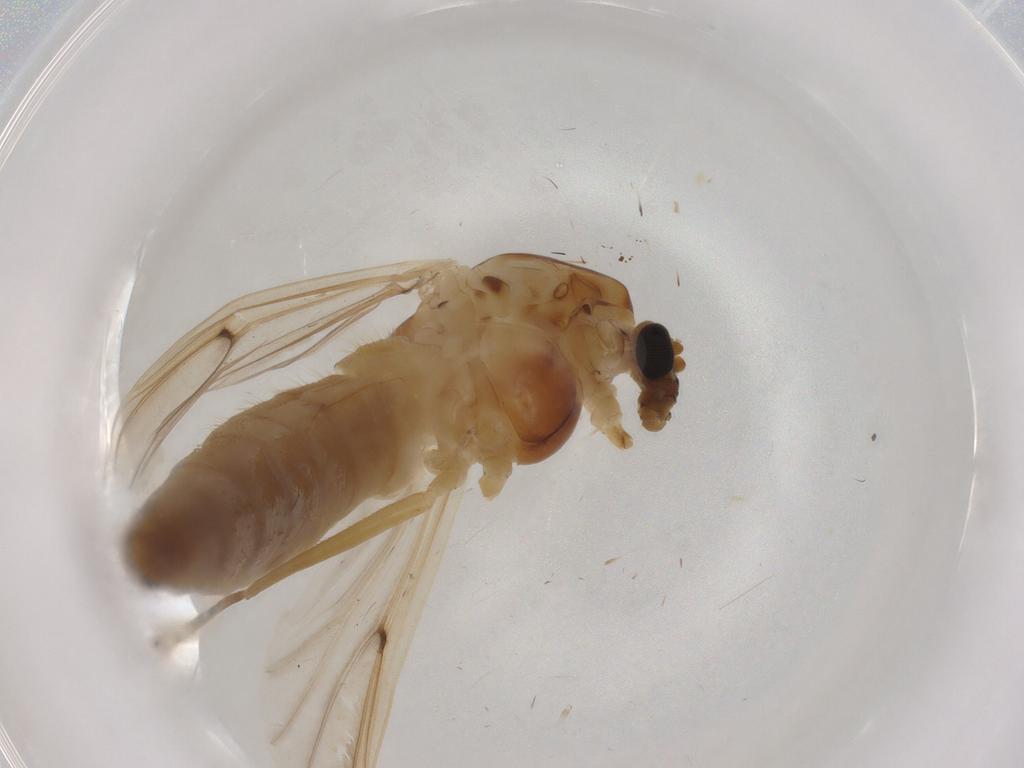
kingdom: Animalia
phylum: Arthropoda
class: Insecta
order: Diptera
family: Chironomidae
